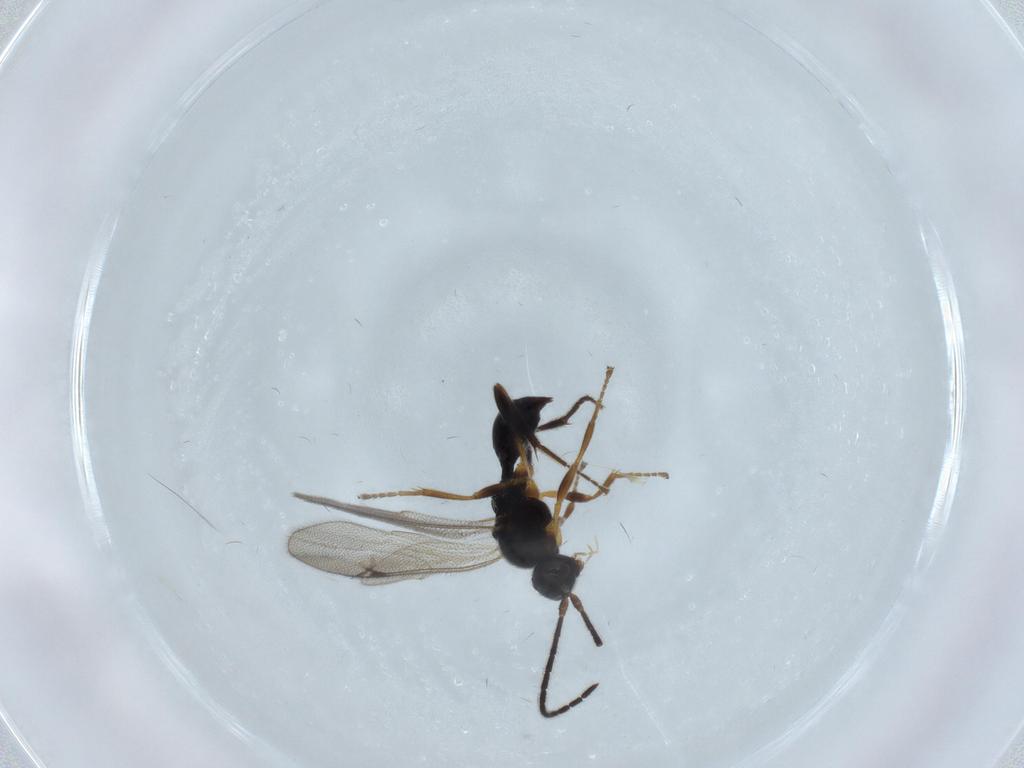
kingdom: Animalia
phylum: Arthropoda
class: Insecta
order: Hymenoptera
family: Proctotrupidae
